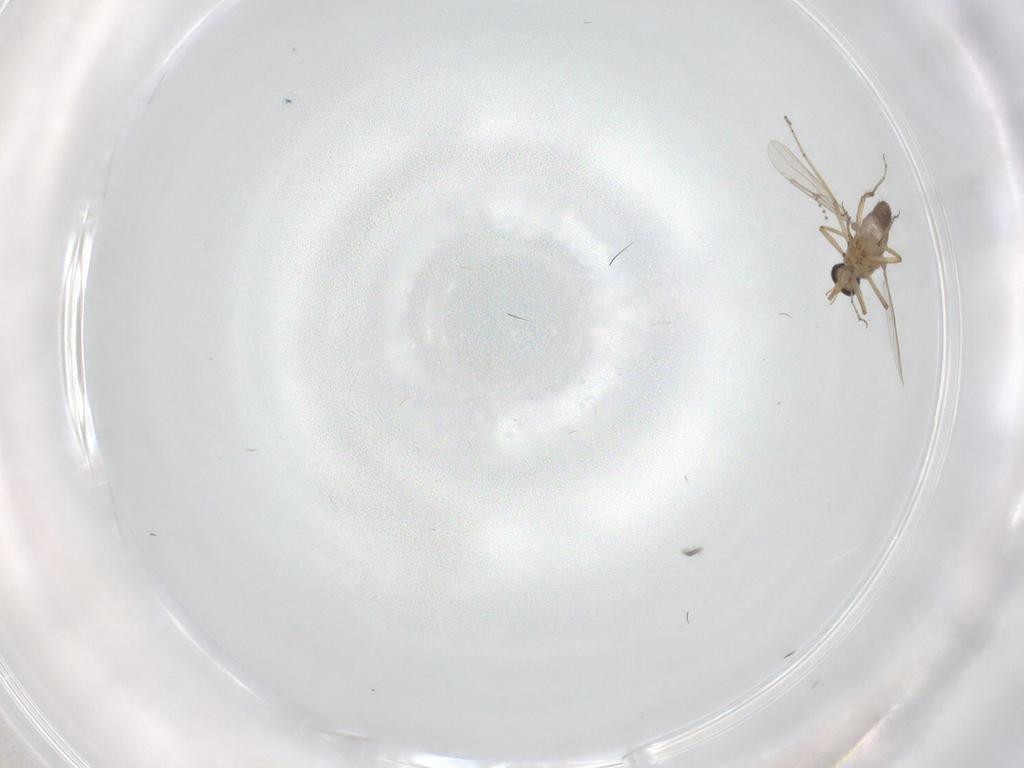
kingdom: Animalia
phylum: Arthropoda
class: Insecta
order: Diptera
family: Ceratopogonidae
